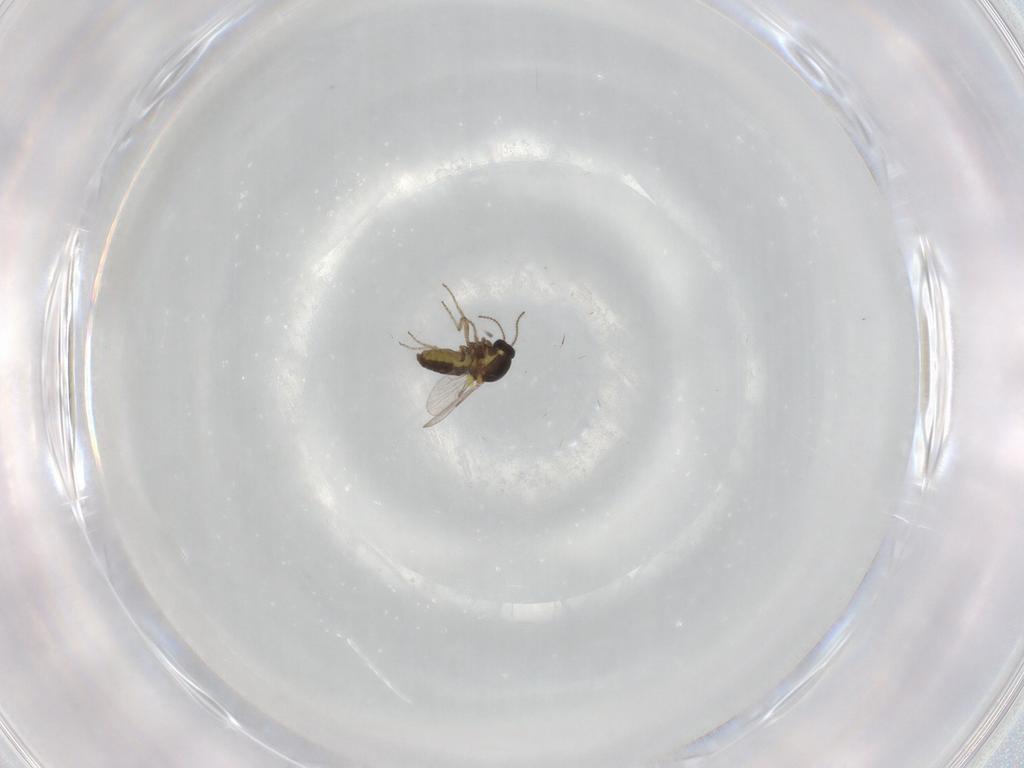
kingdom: Animalia
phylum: Arthropoda
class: Insecta
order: Diptera
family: Ceratopogonidae
